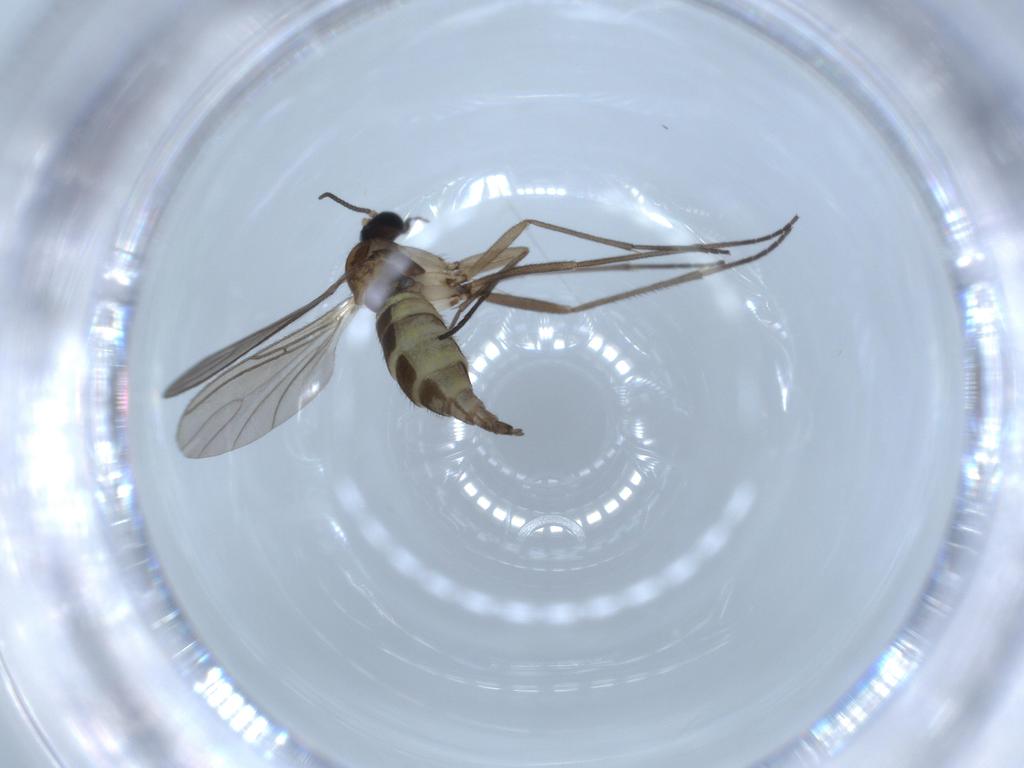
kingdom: Animalia
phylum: Arthropoda
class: Insecta
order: Diptera
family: Sciaridae
